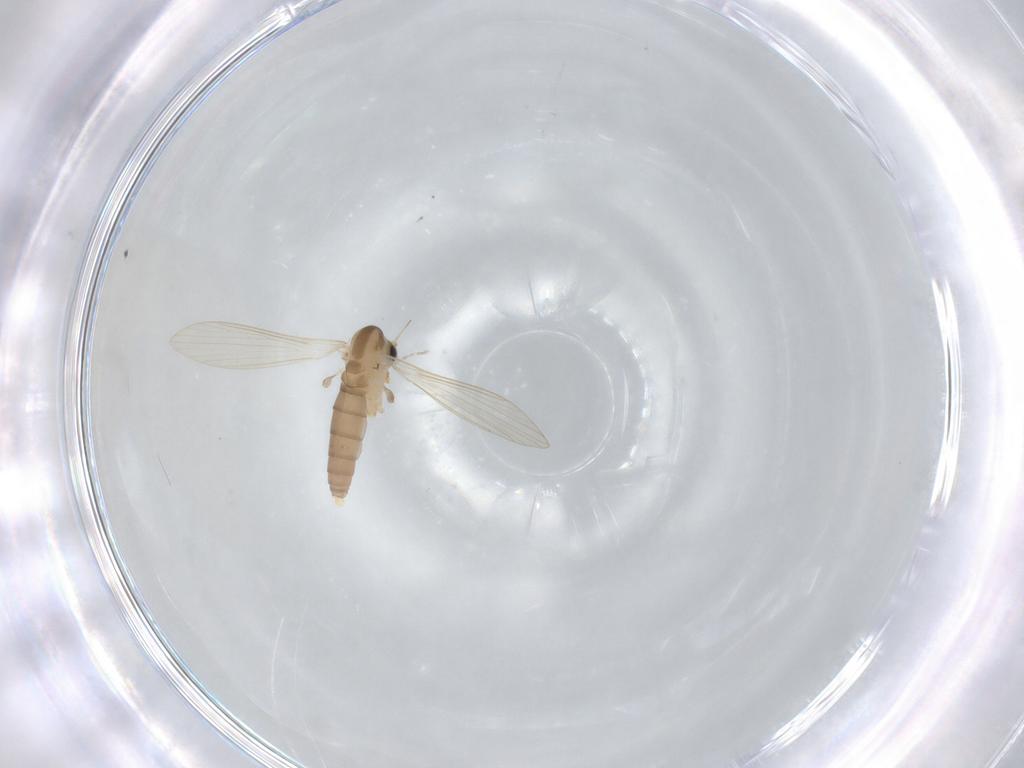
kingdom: Animalia
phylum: Arthropoda
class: Insecta
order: Diptera
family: Psychodidae
